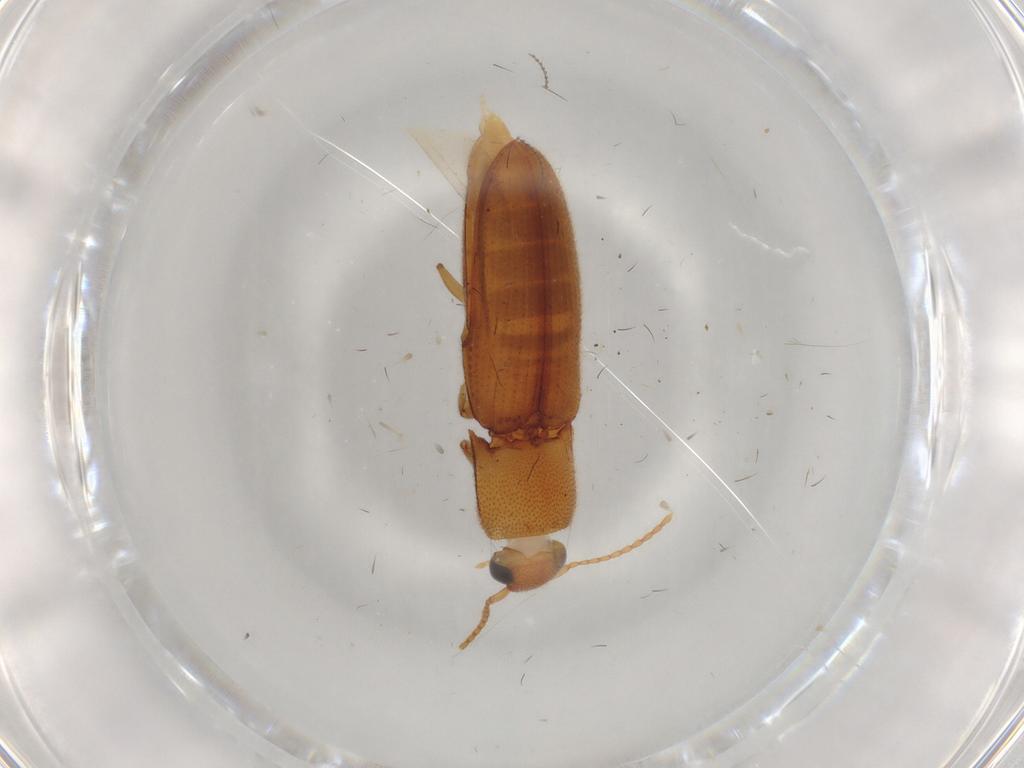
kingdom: Animalia
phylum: Arthropoda
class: Insecta
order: Coleoptera
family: Elateridae
